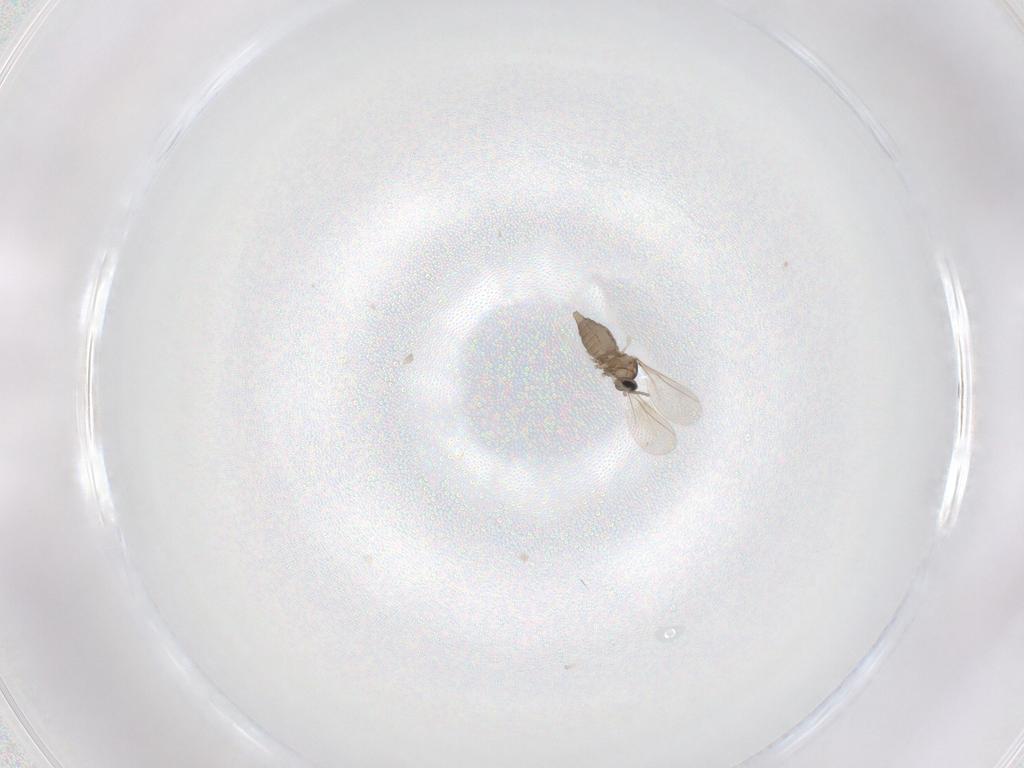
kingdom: Animalia
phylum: Arthropoda
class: Insecta
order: Diptera
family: Cecidomyiidae
